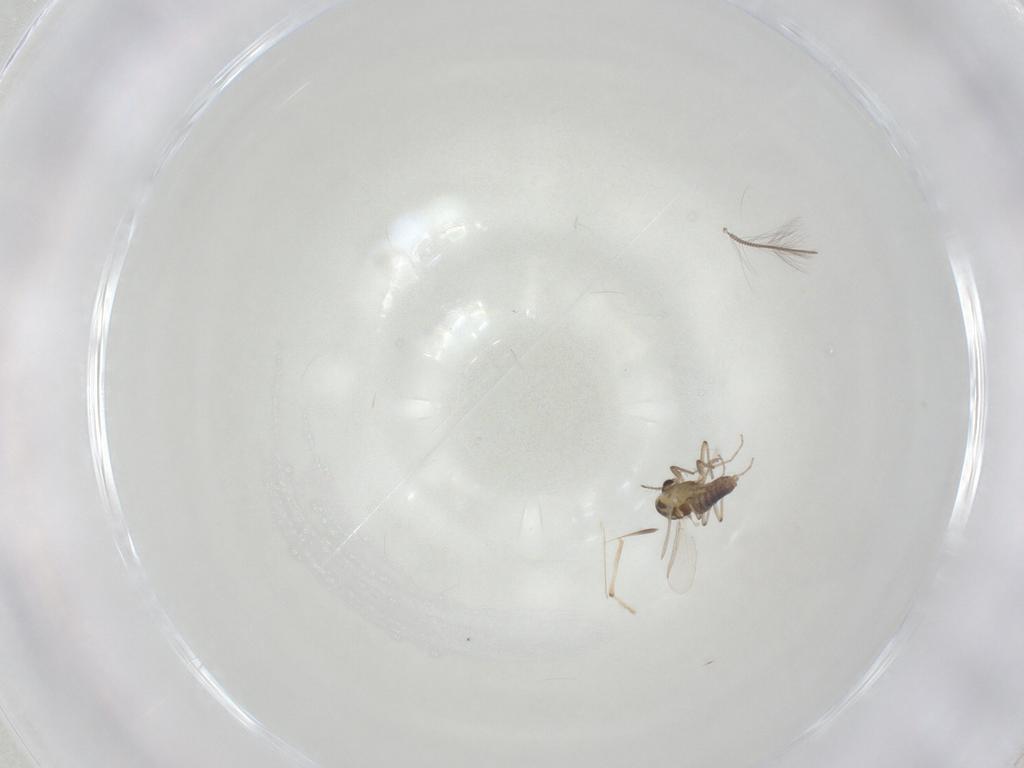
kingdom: Animalia
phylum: Arthropoda
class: Insecta
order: Diptera
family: Chironomidae
